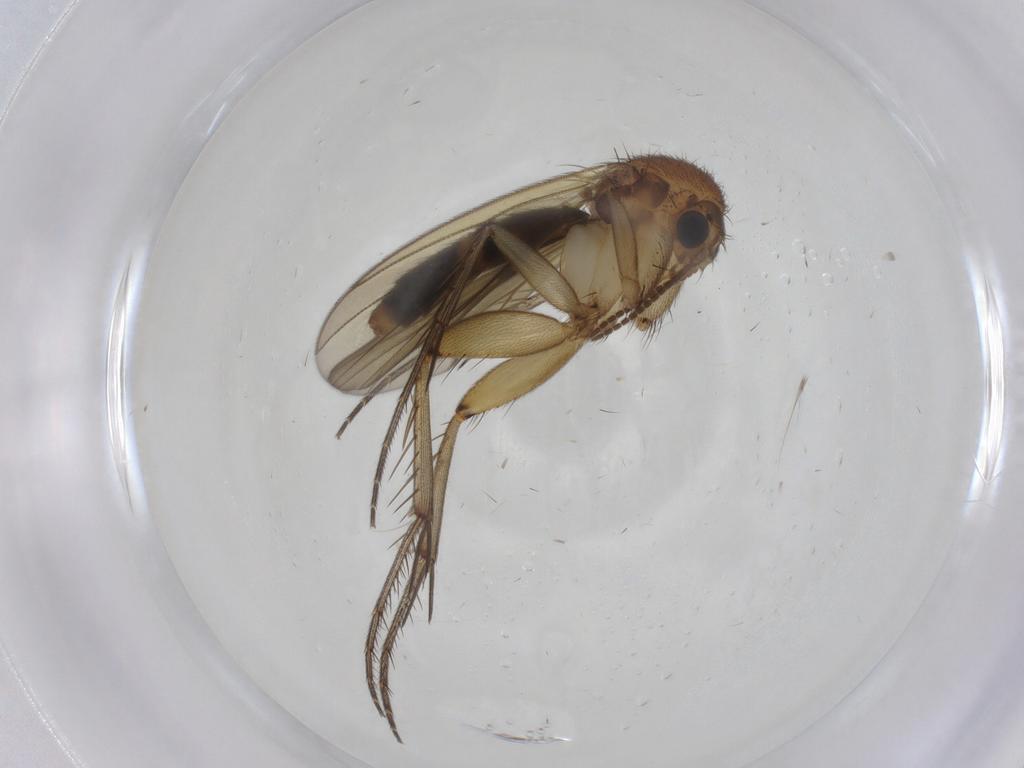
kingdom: Animalia
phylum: Arthropoda
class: Insecta
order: Diptera
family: Mycetophilidae
